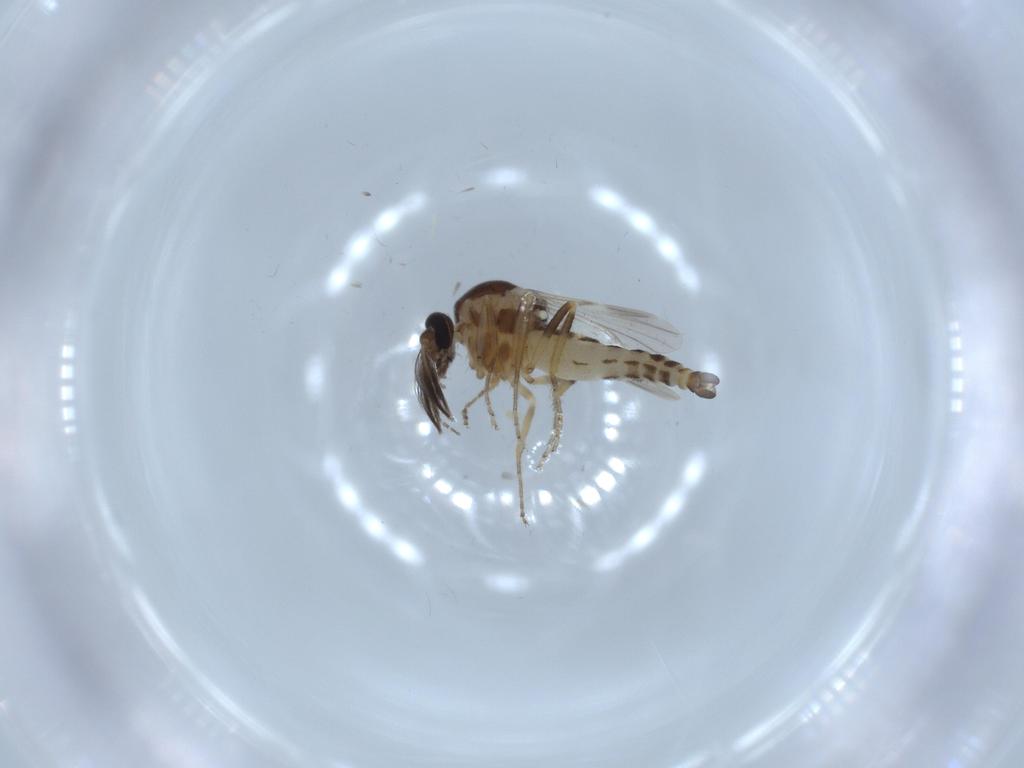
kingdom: Animalia
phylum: Arthropoda
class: Insecta
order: Diptera
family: Ceratopogonidae
